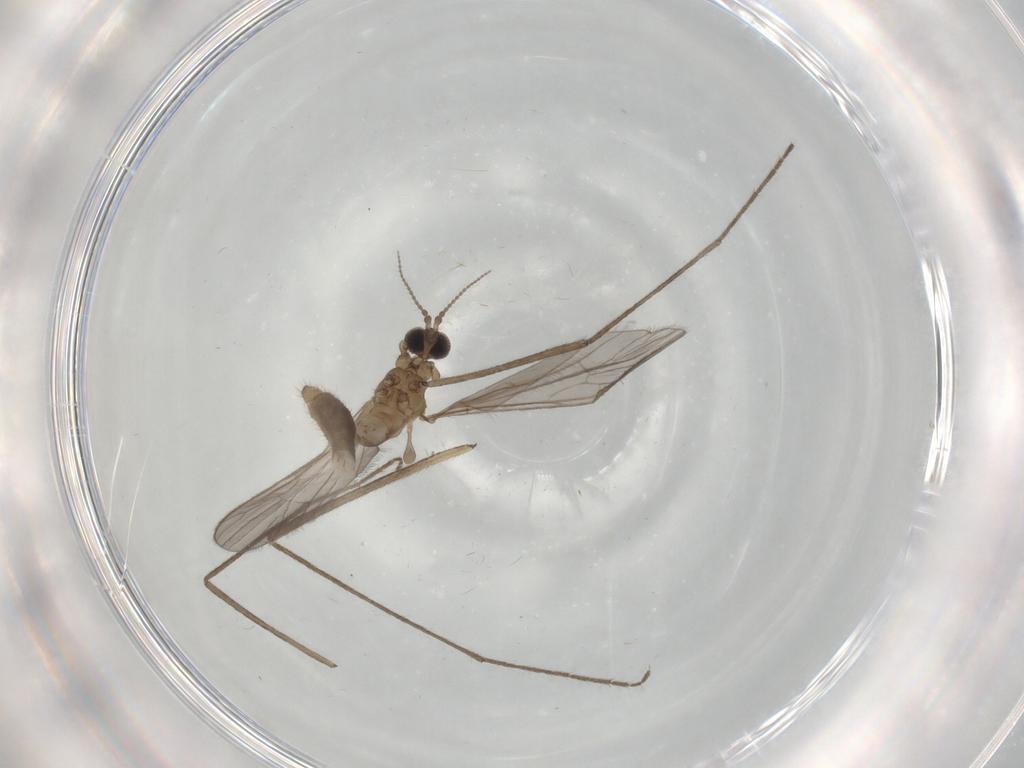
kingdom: Animalia
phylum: Arthropoda
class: Insecta
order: Diptera
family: Limoniidae
